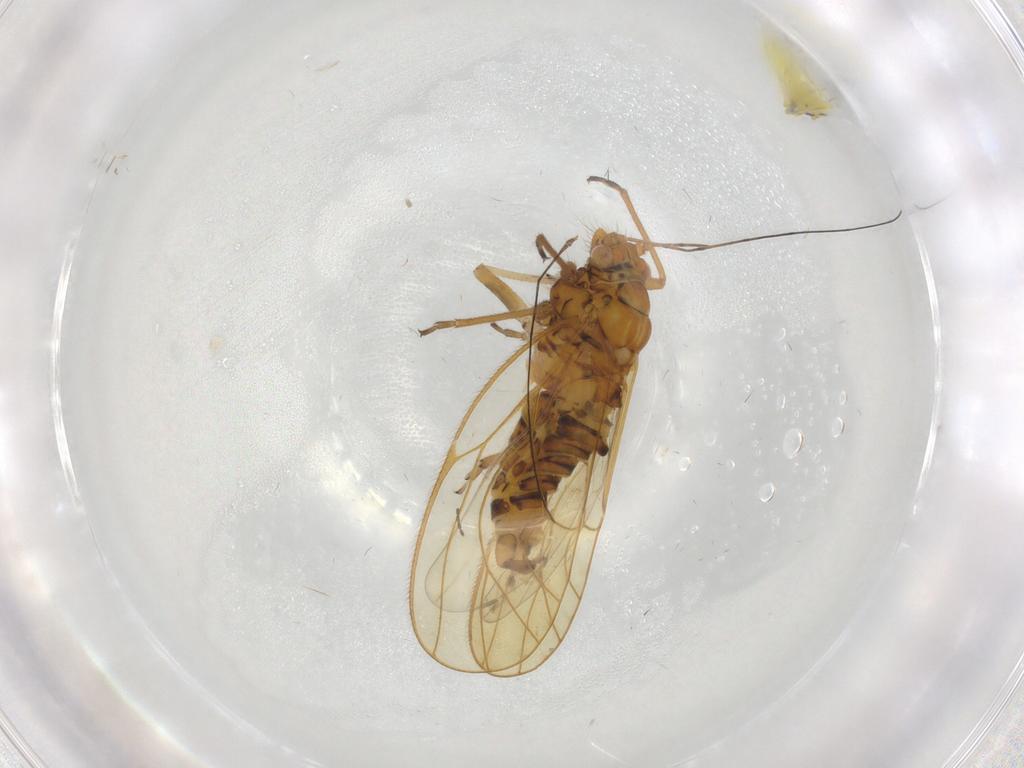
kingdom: Animalia
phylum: Arthropoda
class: Insecta
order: Hemiptera
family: Psyllidae
